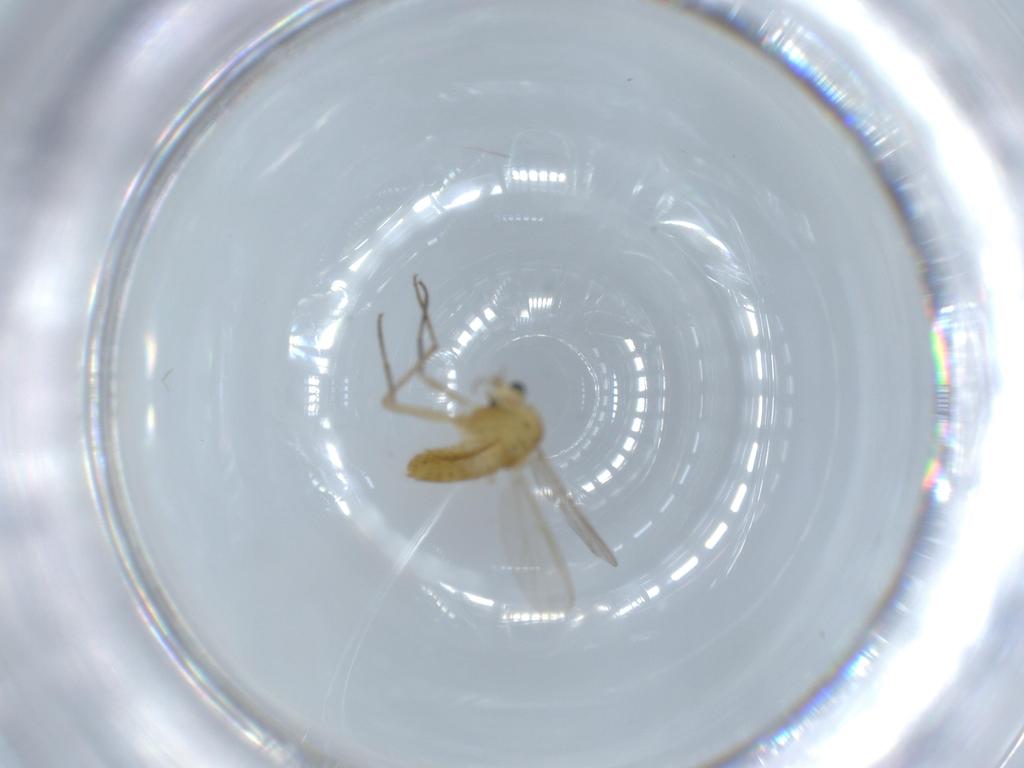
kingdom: Animalia
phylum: Arthropoda
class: Insecta
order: Diptera
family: Chironomidae
